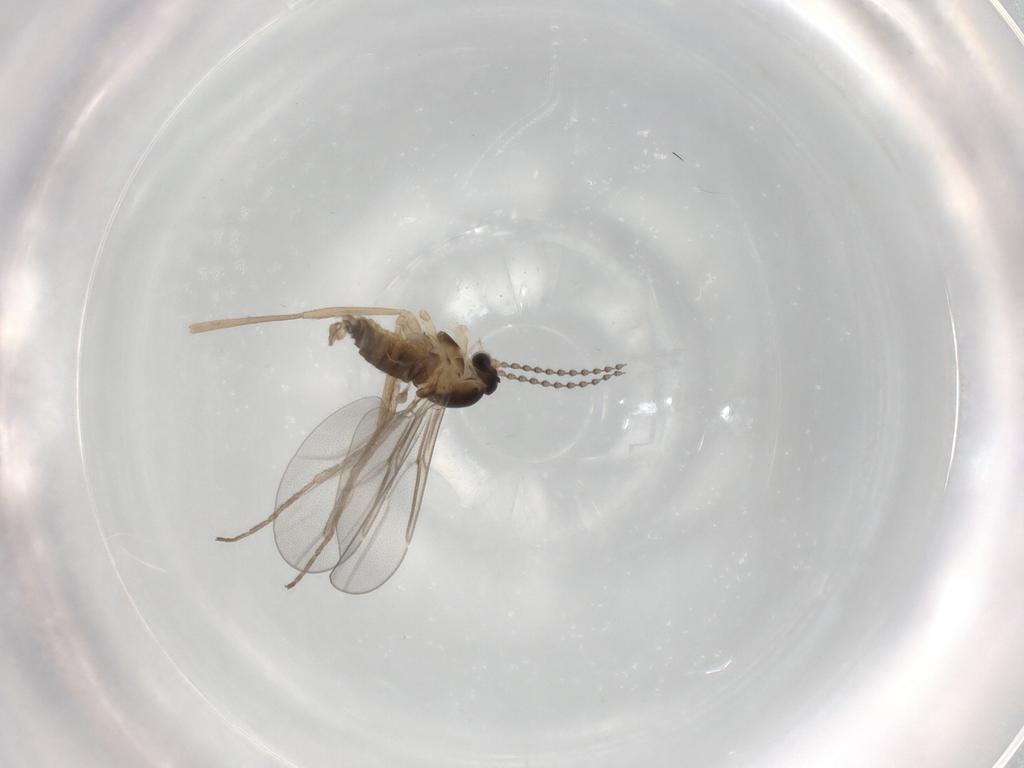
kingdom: Animalia
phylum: Arthropoda
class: Insecta
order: Diptera
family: Cecidomyiidae
